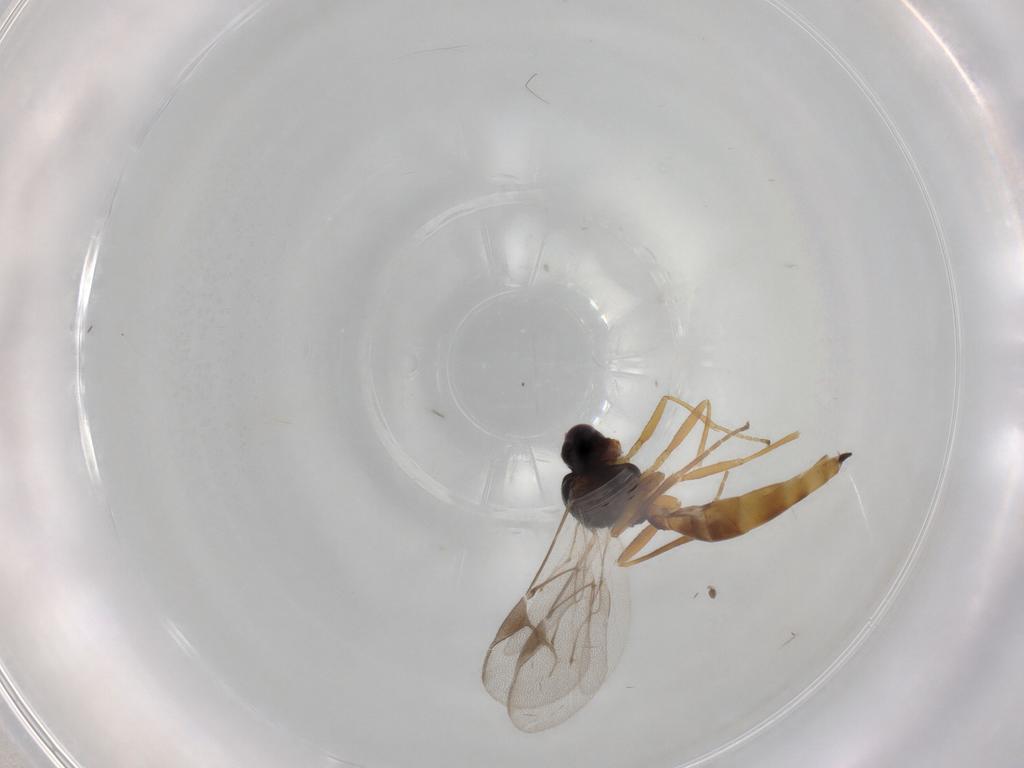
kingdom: Animalia
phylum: Arthropoda
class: Insecta
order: Hymenoptera
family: Braconidae
